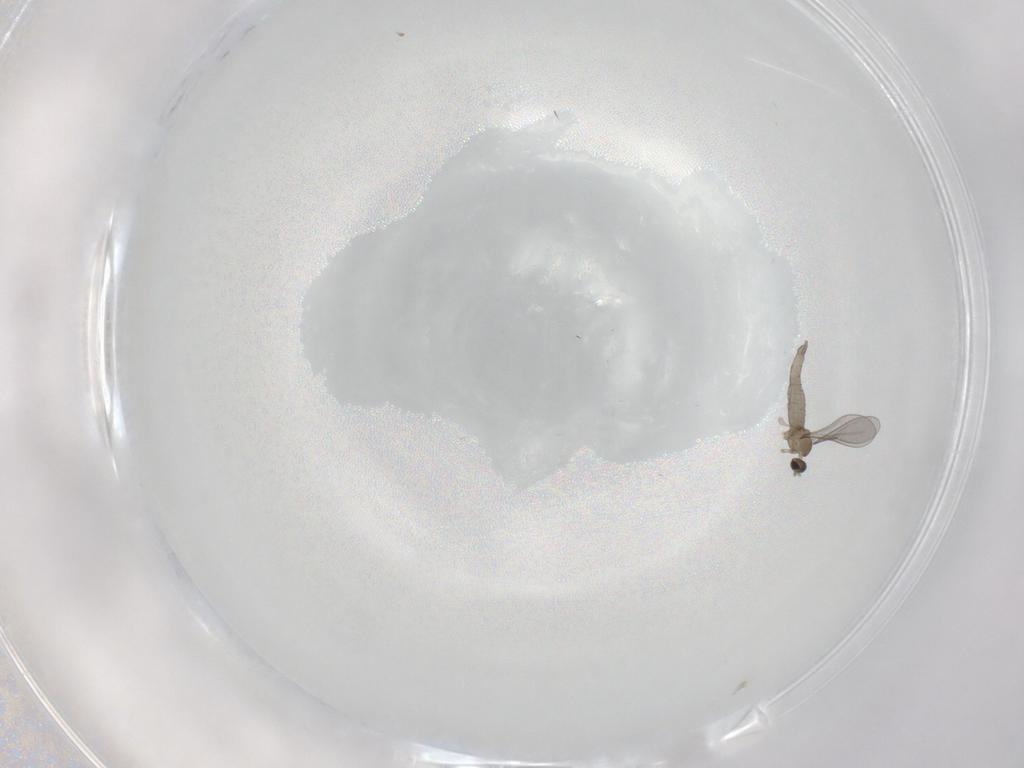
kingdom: Animalia
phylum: Arthropoda
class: Insecta
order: Diptera
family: Cecidomyiidae
